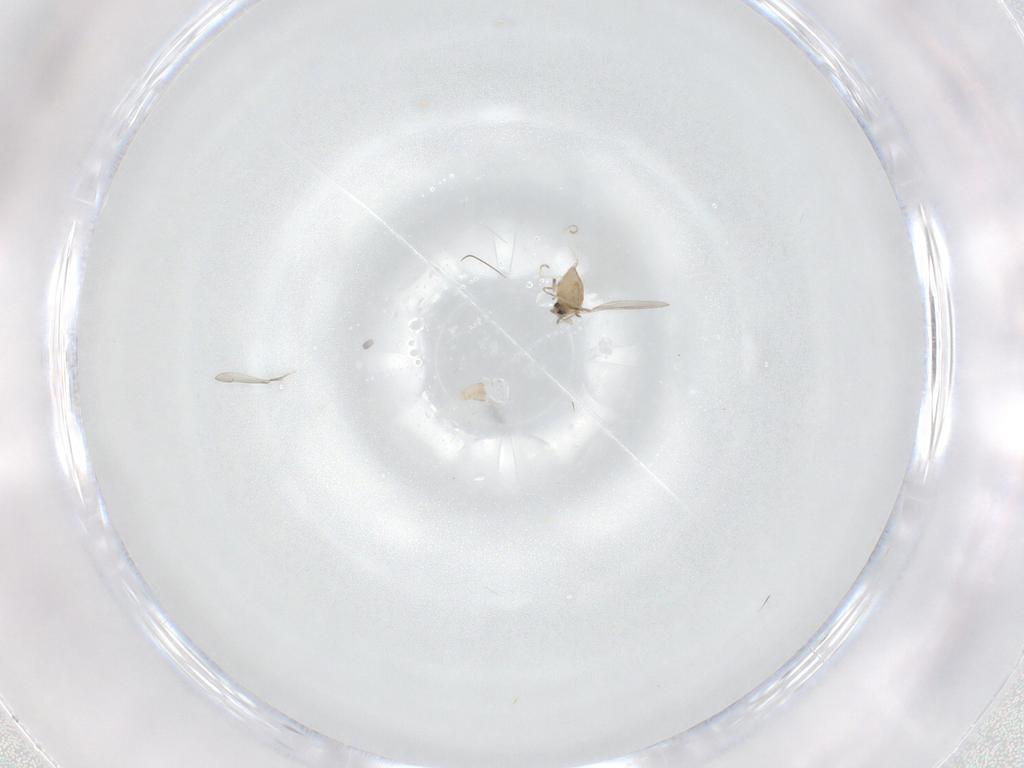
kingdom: Animalia
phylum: Arthropoda
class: Insecta
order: Diptera
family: Cecidomyiidae
